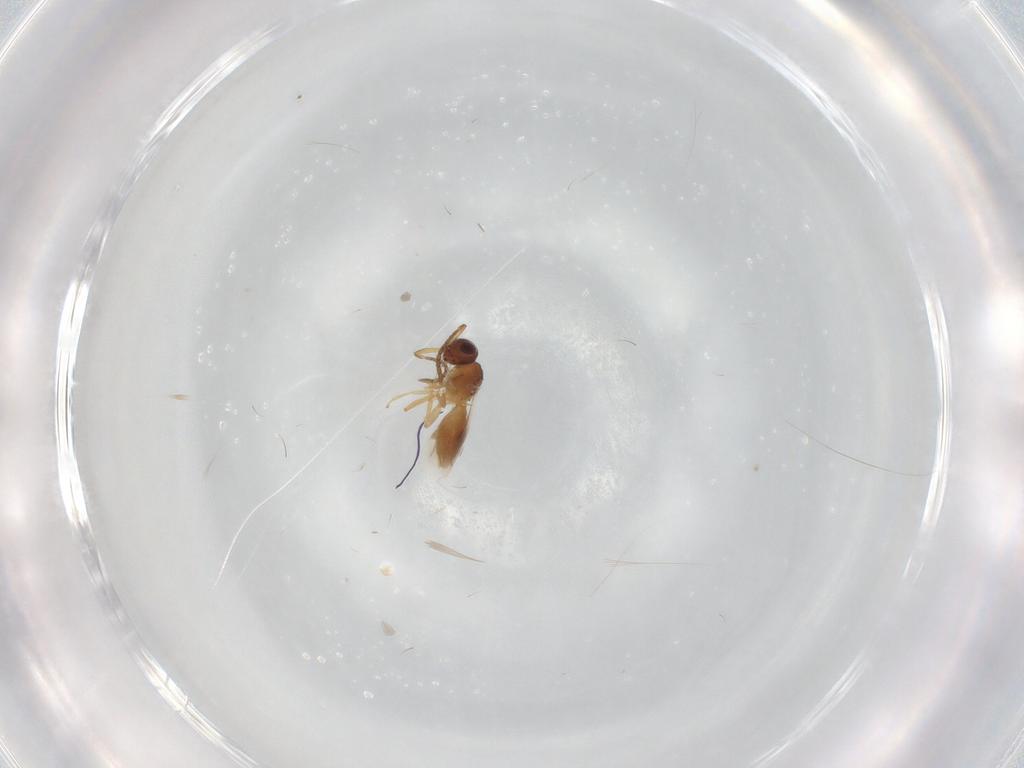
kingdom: Animalia
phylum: Arthropoda
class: Insecta
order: Hymenoptera
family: Megaspilidae
